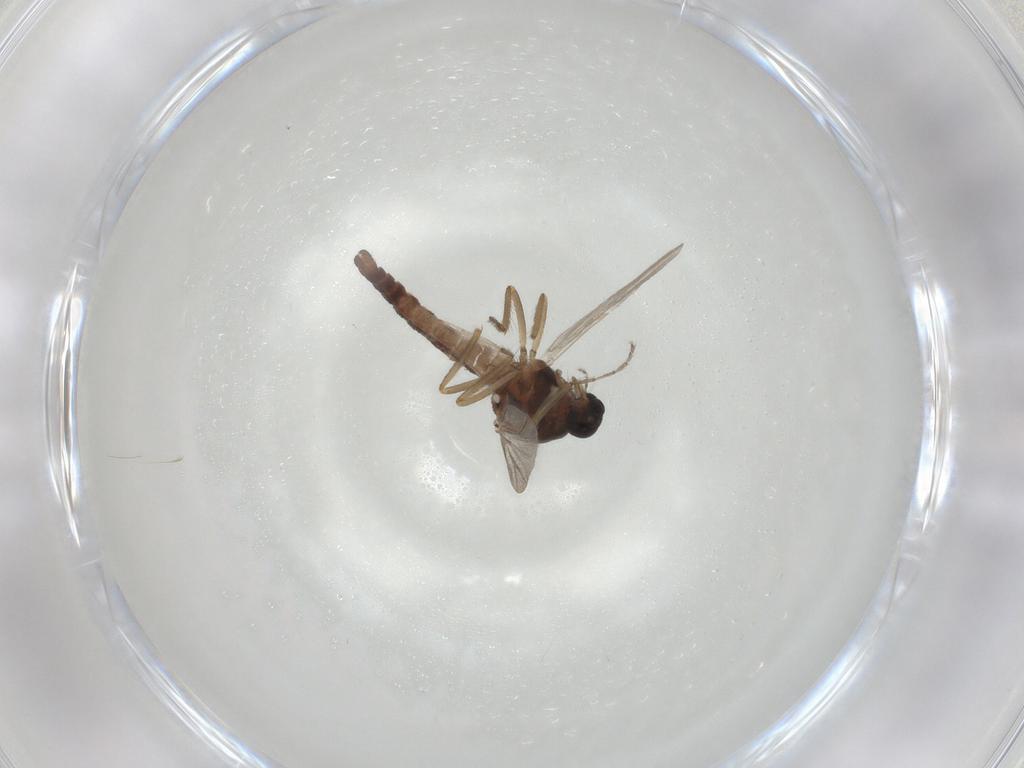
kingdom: Animalia
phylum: Arthropoda
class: Insecta
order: Diptera
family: Ceratopogonidae
